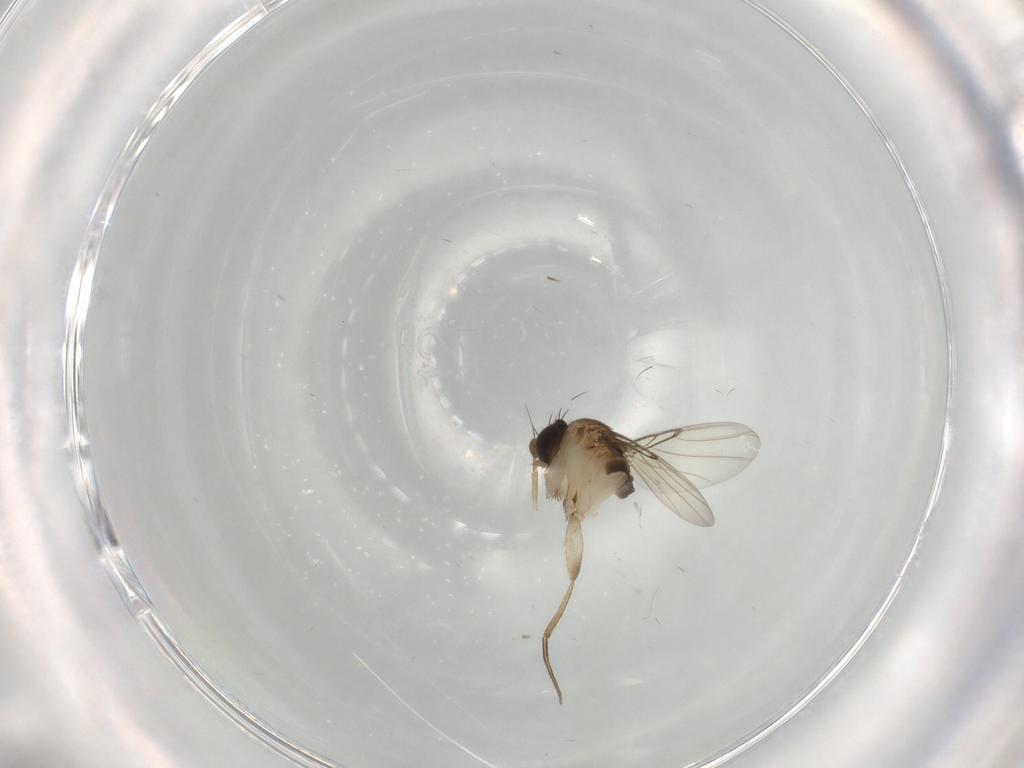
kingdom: Animalia
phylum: Arthropoda
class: Insecta
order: Diptera
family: Phoridae
